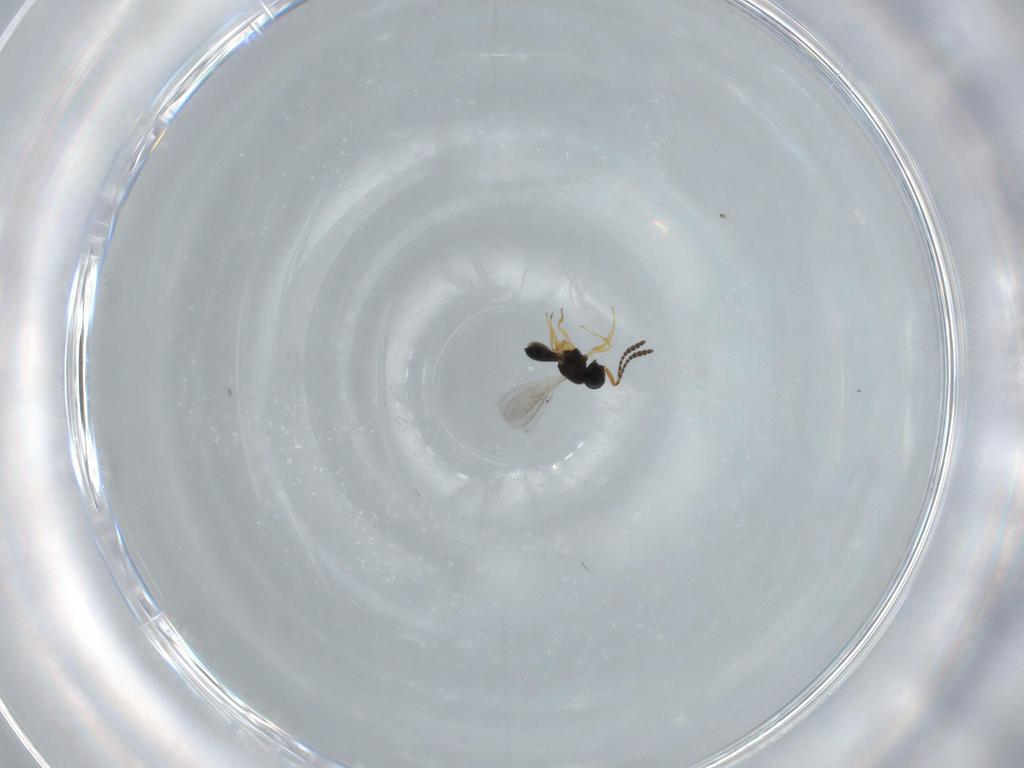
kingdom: Animalia
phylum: Arthropoda
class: Insecta
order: Hymenoptera
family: Scelionidae
